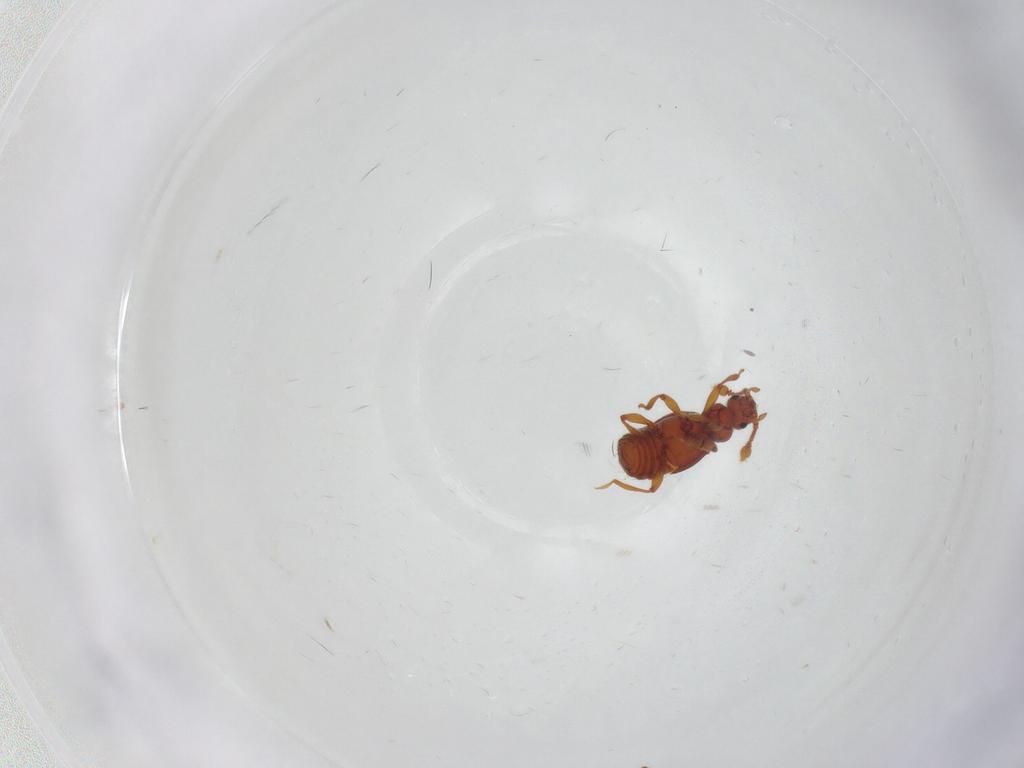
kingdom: Animalia
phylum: Arthropoda
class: Insecta
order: Coleoptera
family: Staphylinidae
